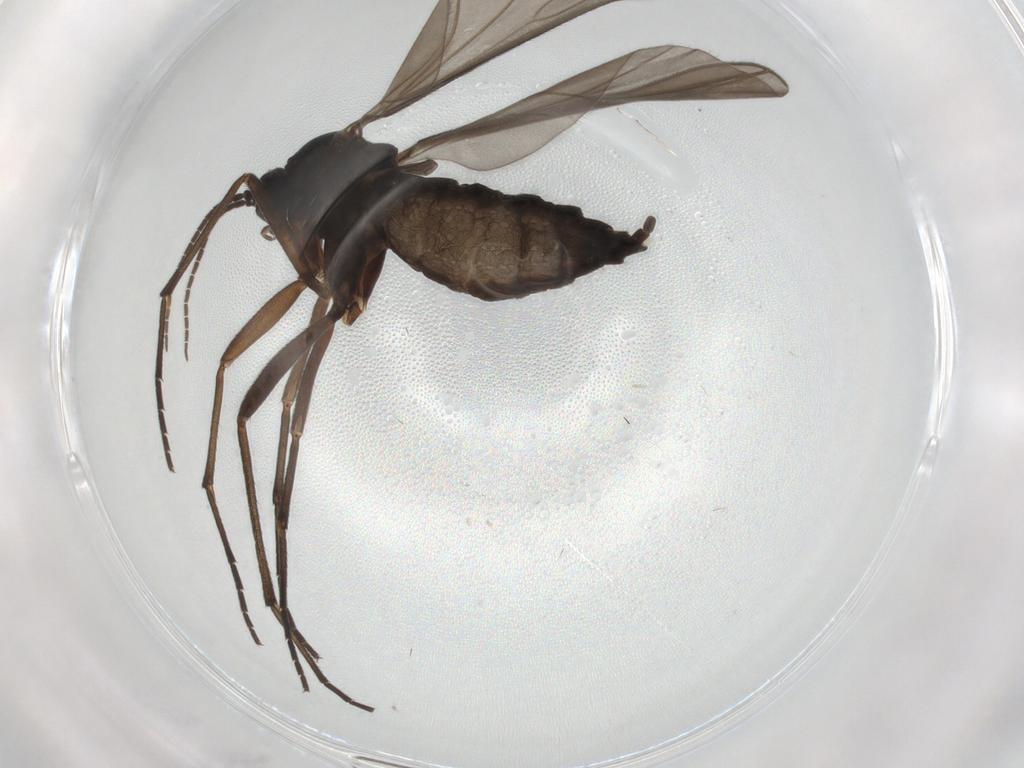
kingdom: Animalia
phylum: Arthropoda
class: Insecta
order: Diptera
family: Sciaridae
